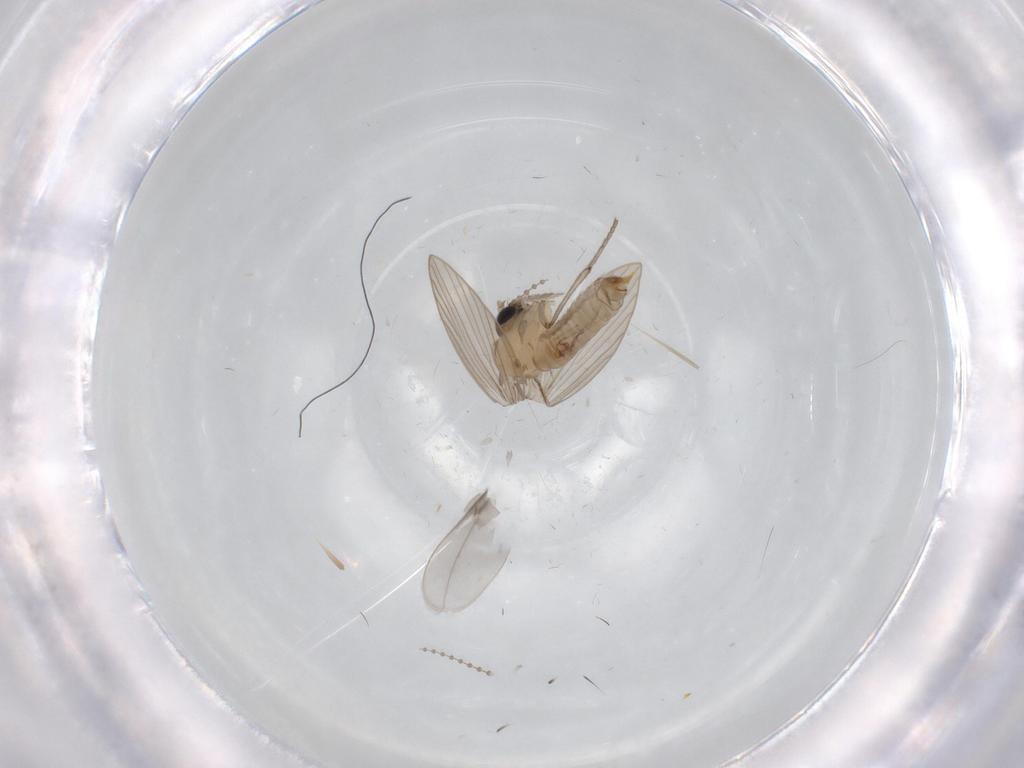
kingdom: Animalia
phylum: Arthropoda
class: Insecta
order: Diptera
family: Psychodidae
